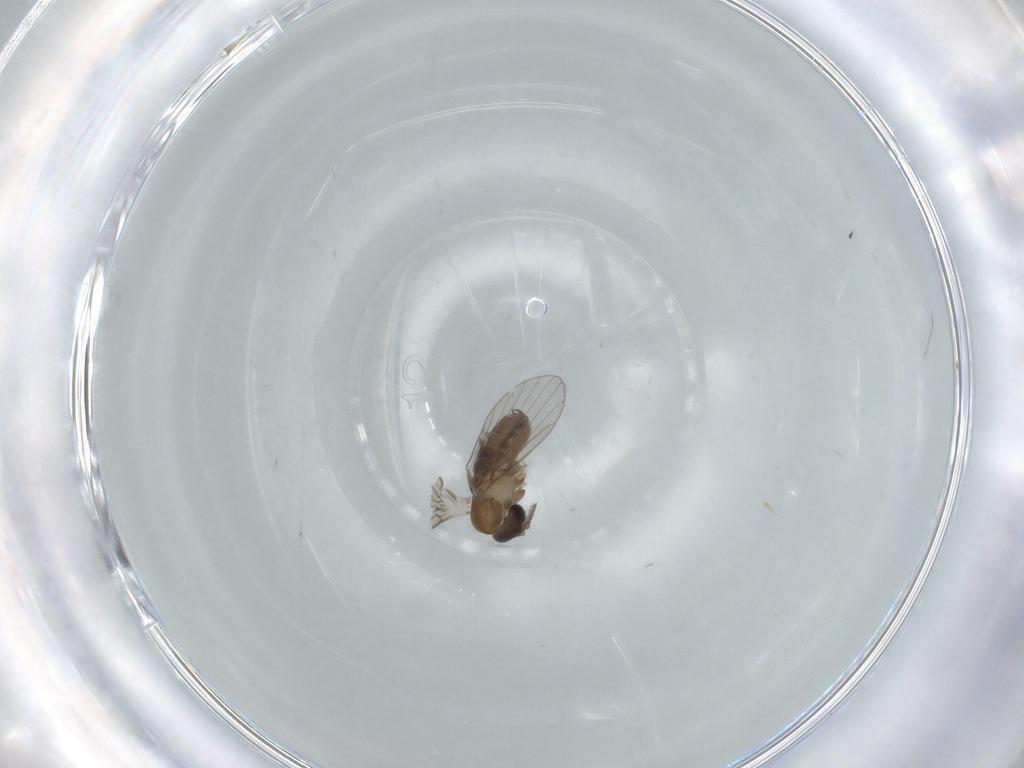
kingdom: Animalia
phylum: Arthropoda
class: Insecta
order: Diptera
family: Psychodidae
